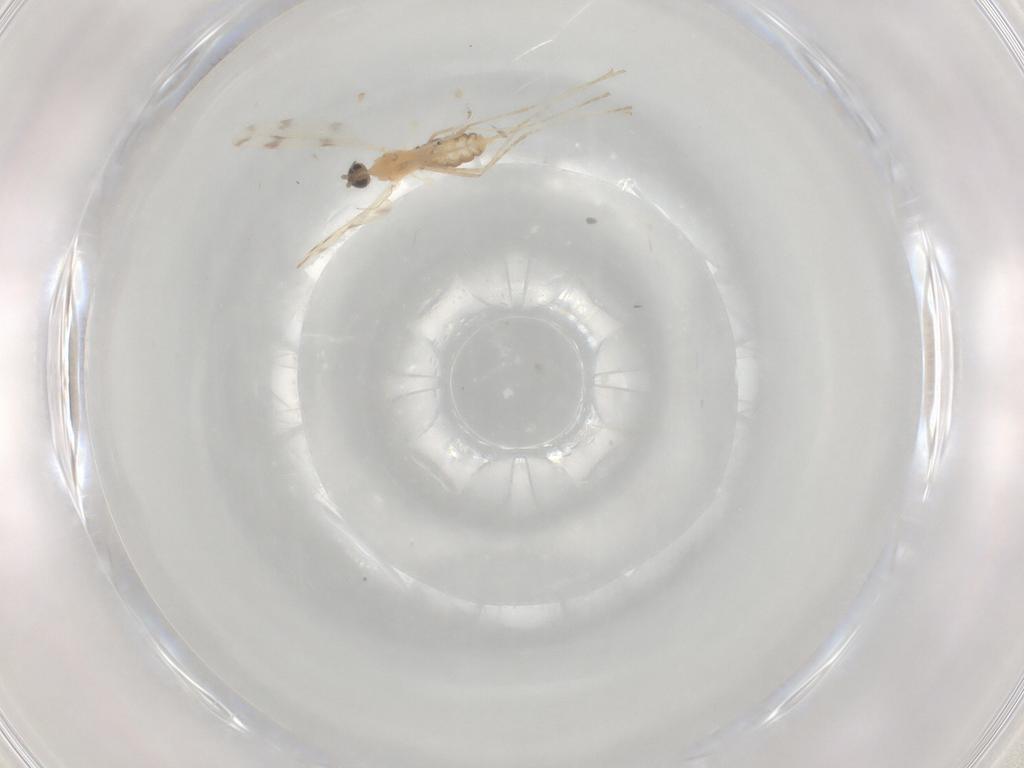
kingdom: Animalia
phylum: Arthropoda
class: Insecta
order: Diptera
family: Cecidomyiidae
